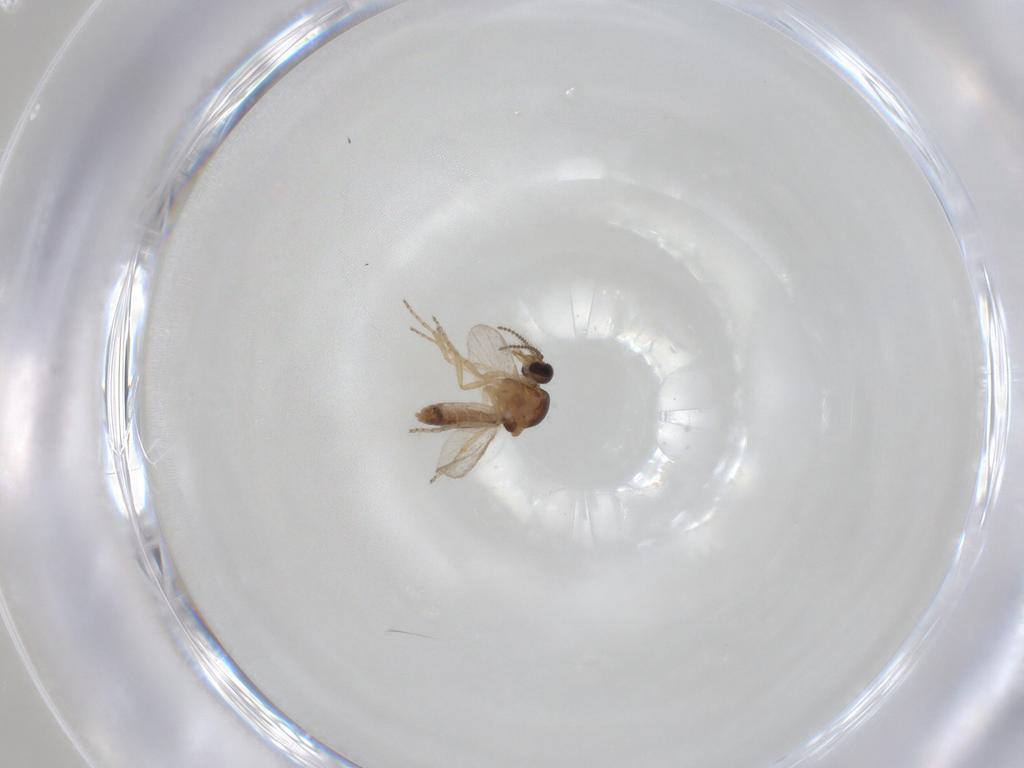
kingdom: Animalia
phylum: Arthropoda
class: Insecta
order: Diptera
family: Ceratopogonidae
